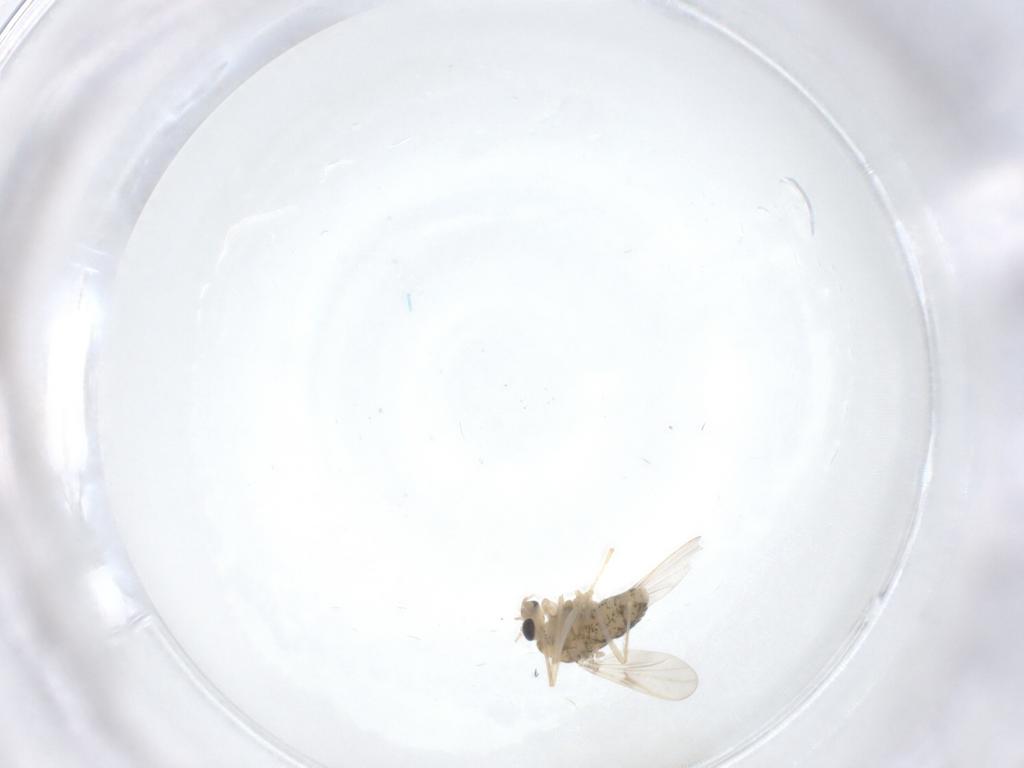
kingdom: Animalia
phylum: Arthropoda
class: Insecta
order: Diptera
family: Chironomidae
